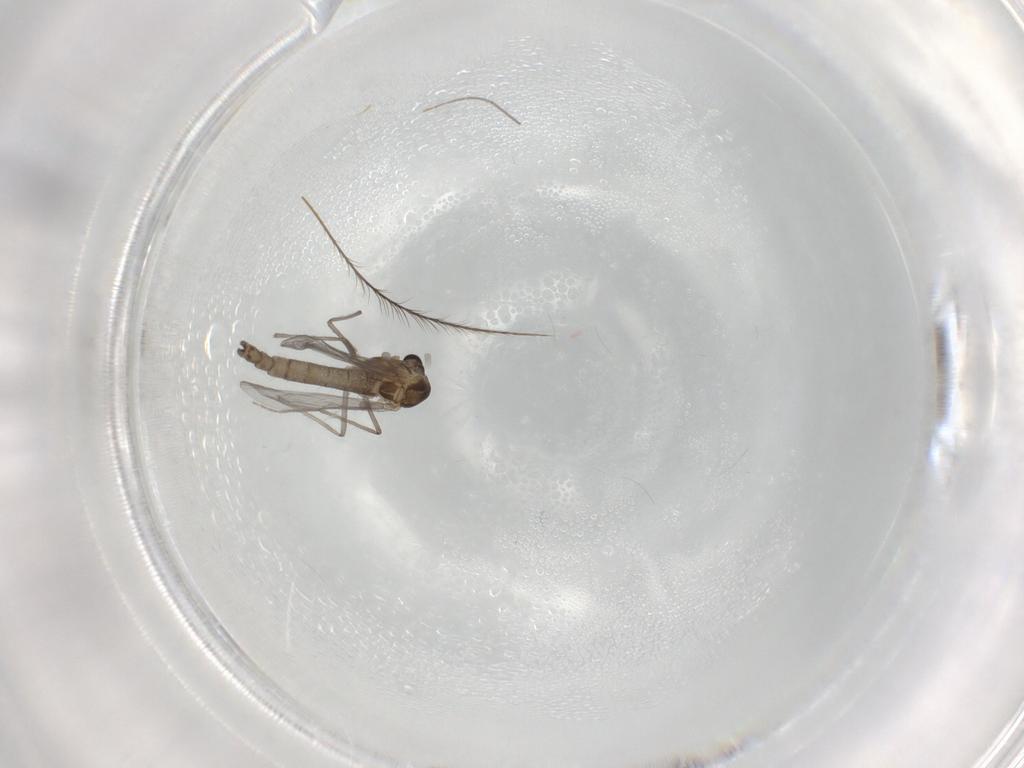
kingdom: Animalia
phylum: Arthropoda
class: Insecta
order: Diptera
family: Chironomidae
